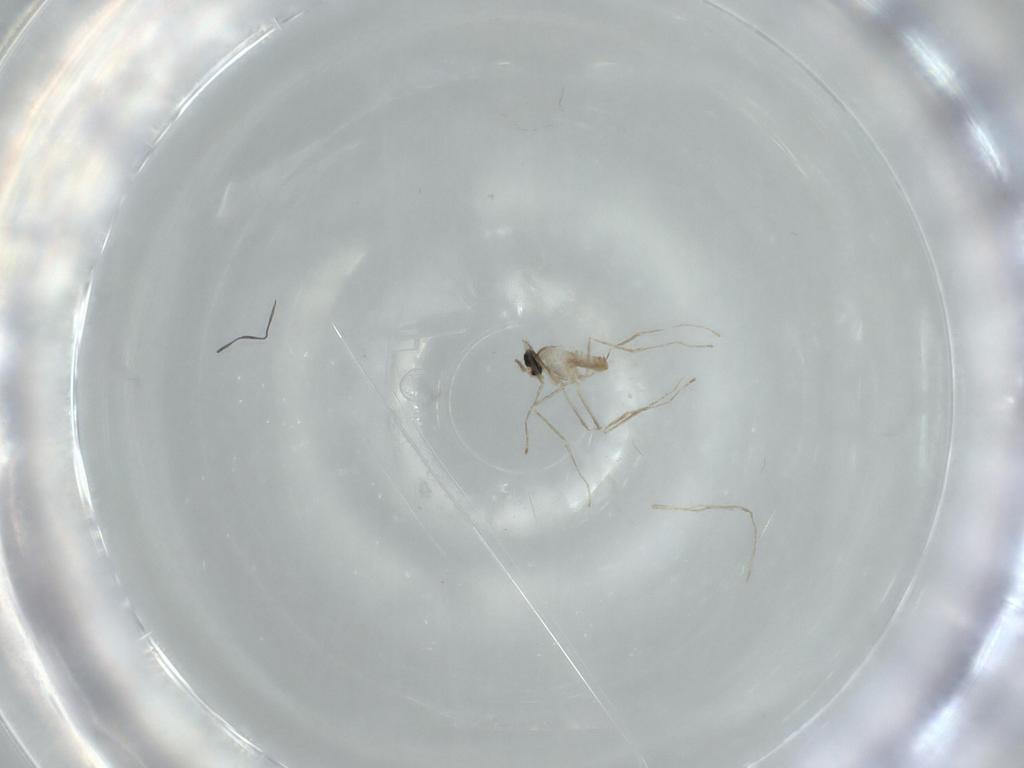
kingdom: Animalia
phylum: Arthropoda
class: Insecta
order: Diptera
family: Cecidomyiidae
